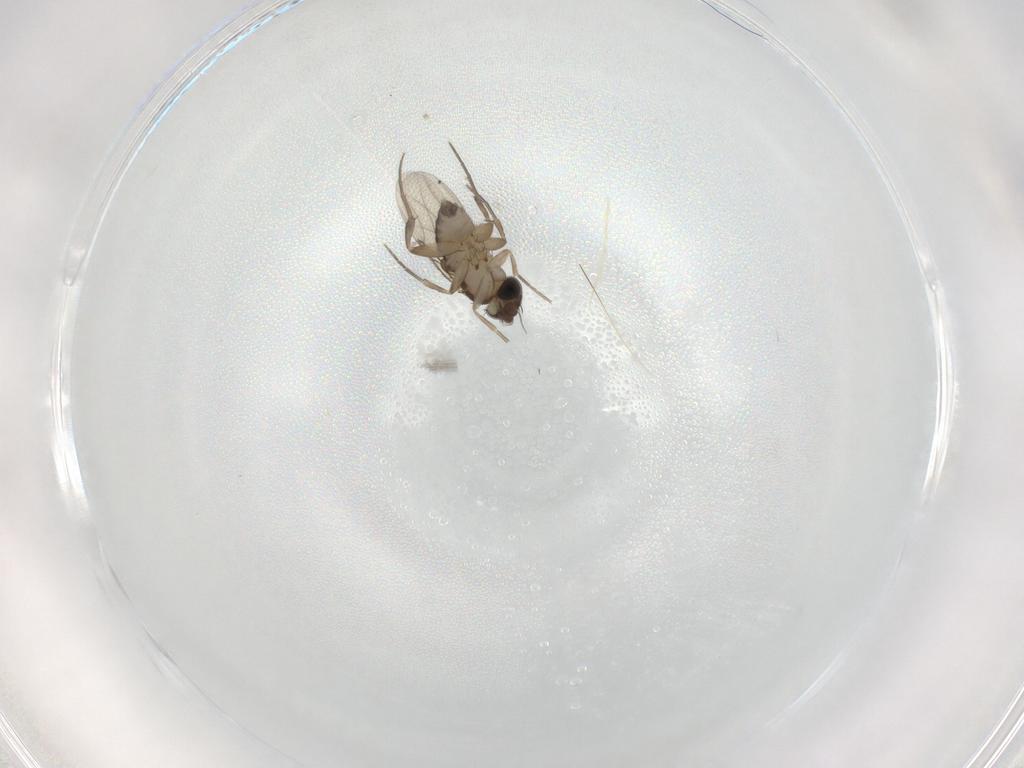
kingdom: Animalia
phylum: Arthropoda
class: Insecta
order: Diptera
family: Phoridae
